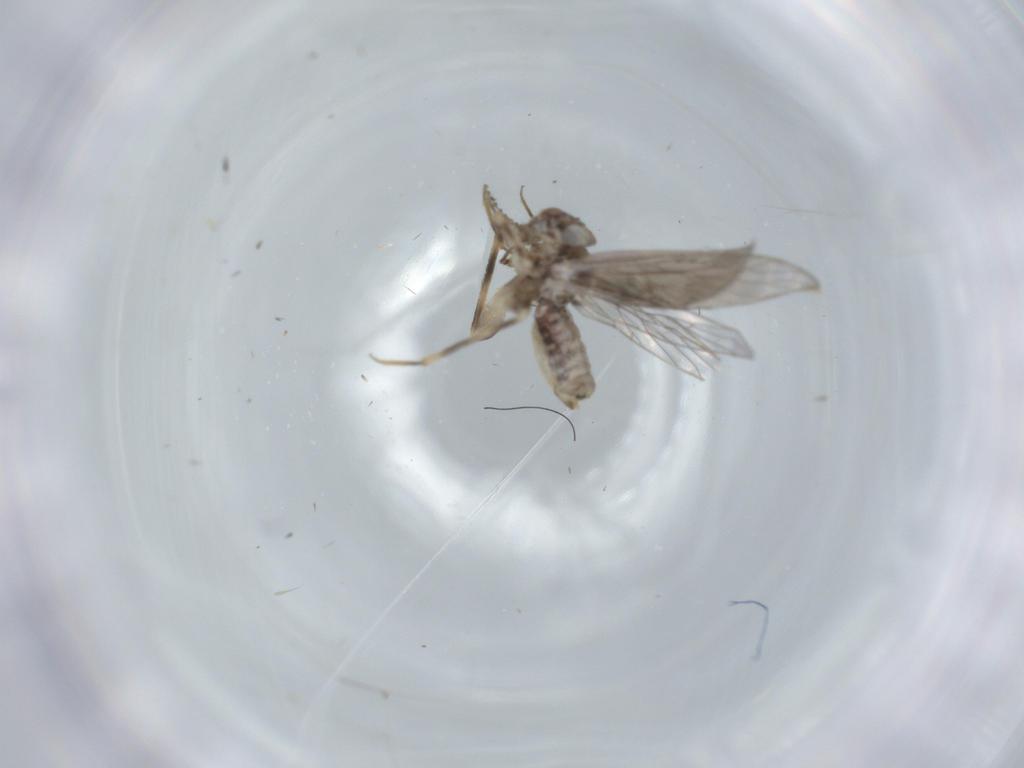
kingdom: Animalia
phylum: Arthropoda
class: Insecta
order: Psocodea
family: Lepidopsocidae
